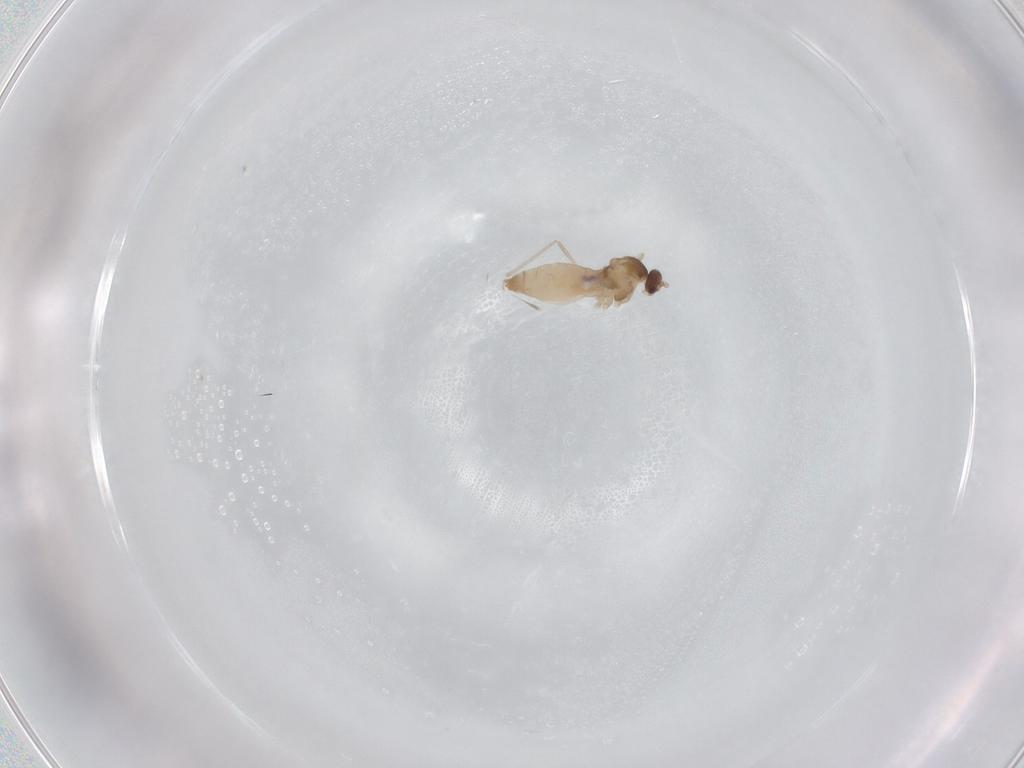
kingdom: Animalia
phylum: Arthropoda
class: Insecta
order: Diptera
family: Cecidomyiidae
